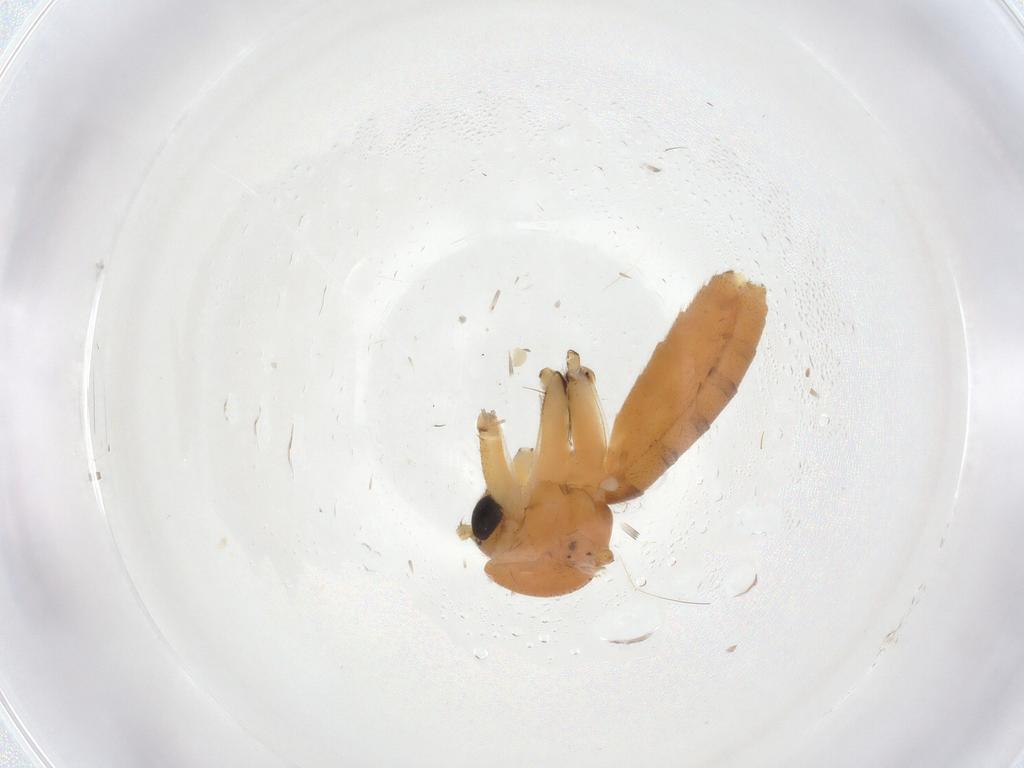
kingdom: Animalia
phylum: Arthropoda
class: Insecta
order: Diptera
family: Mycetophilidae
